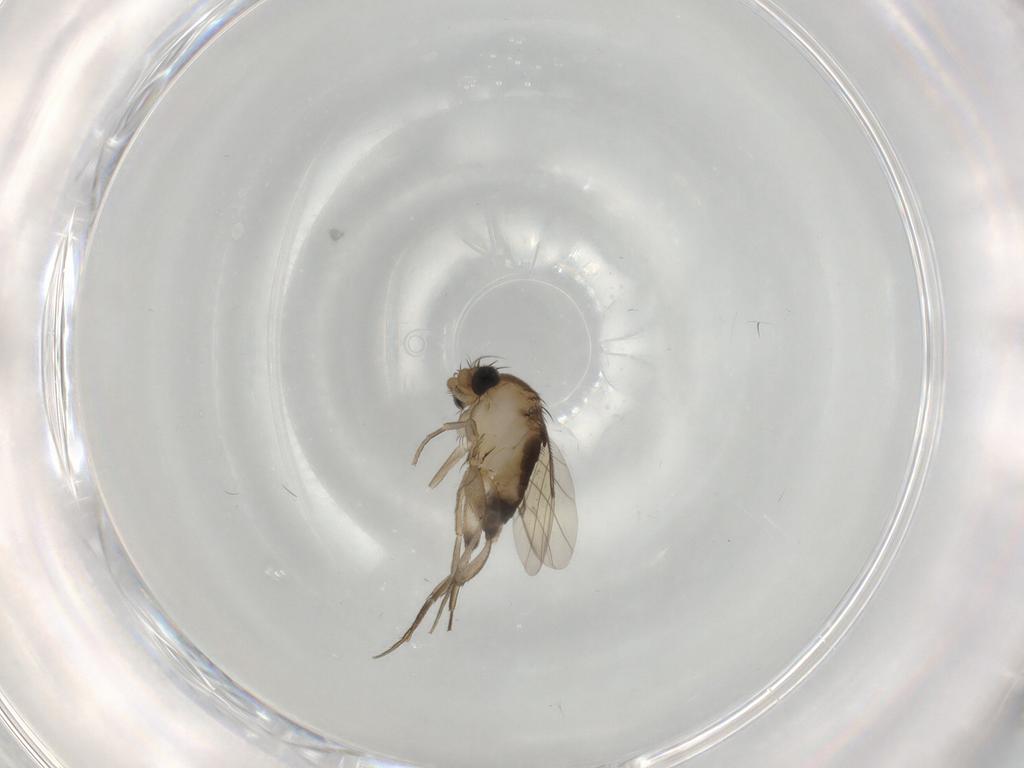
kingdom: Animalia
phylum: Arthropoda
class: Insecta
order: Diptera
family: Phoridae
